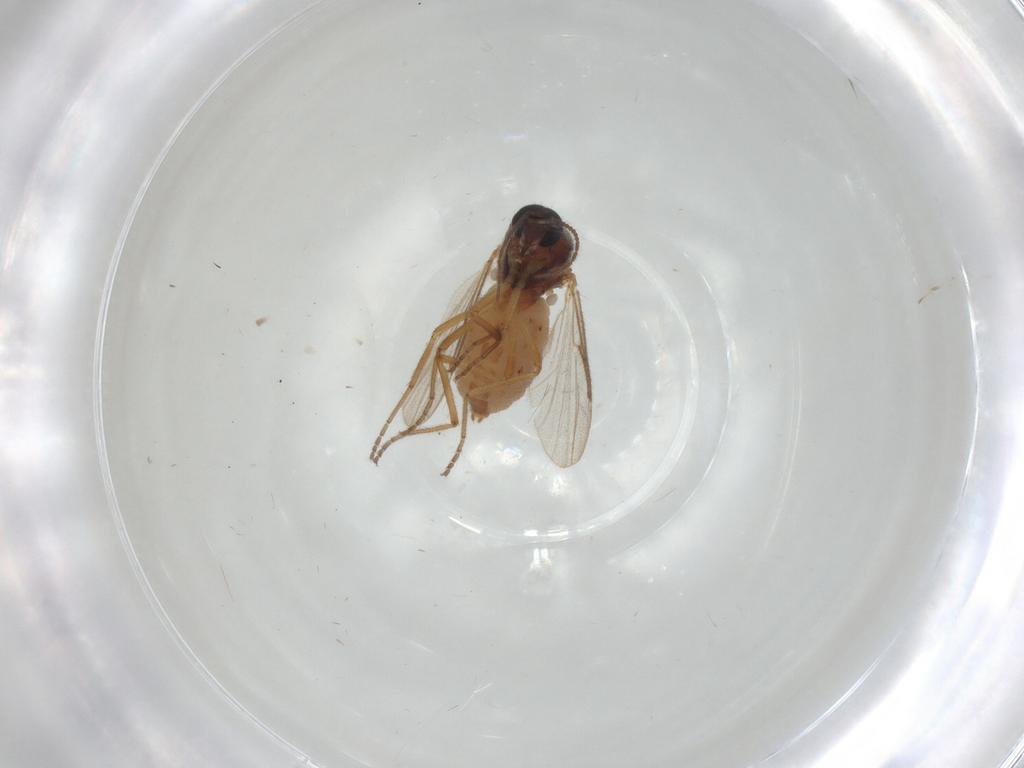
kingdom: Animalia
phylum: Arthropoda
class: Insecta
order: Diptera
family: Ceratopogonidae
